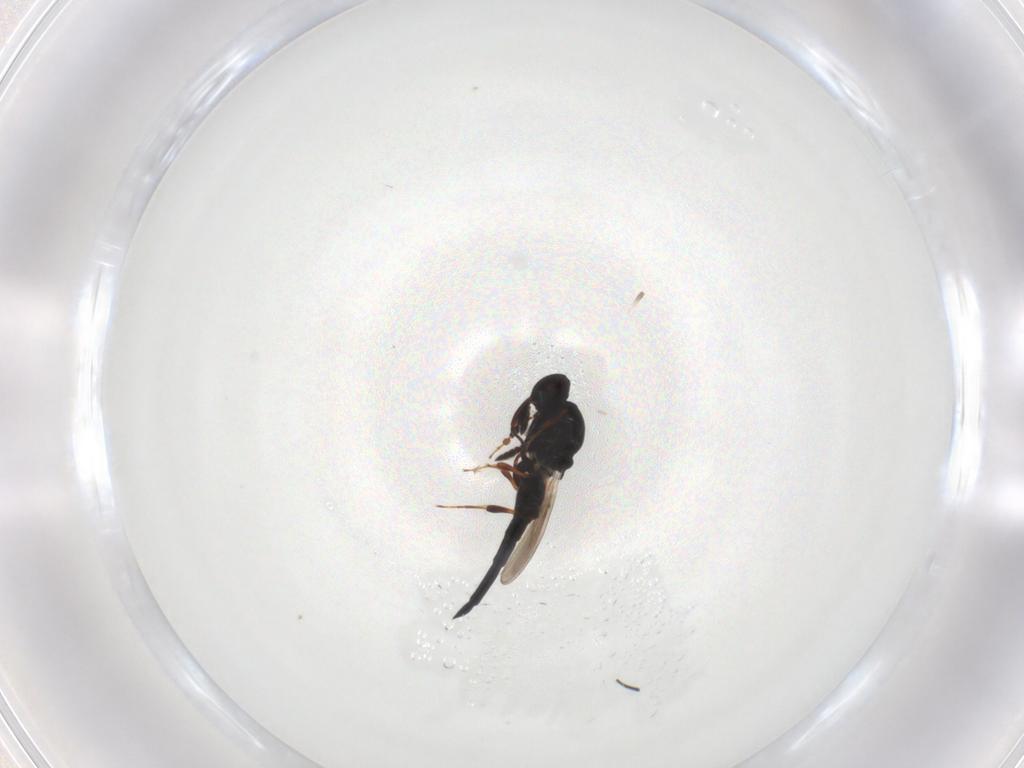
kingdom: Animalia
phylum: Arthropoda
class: Insecta
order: Hymenoptera
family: Platygastridae
